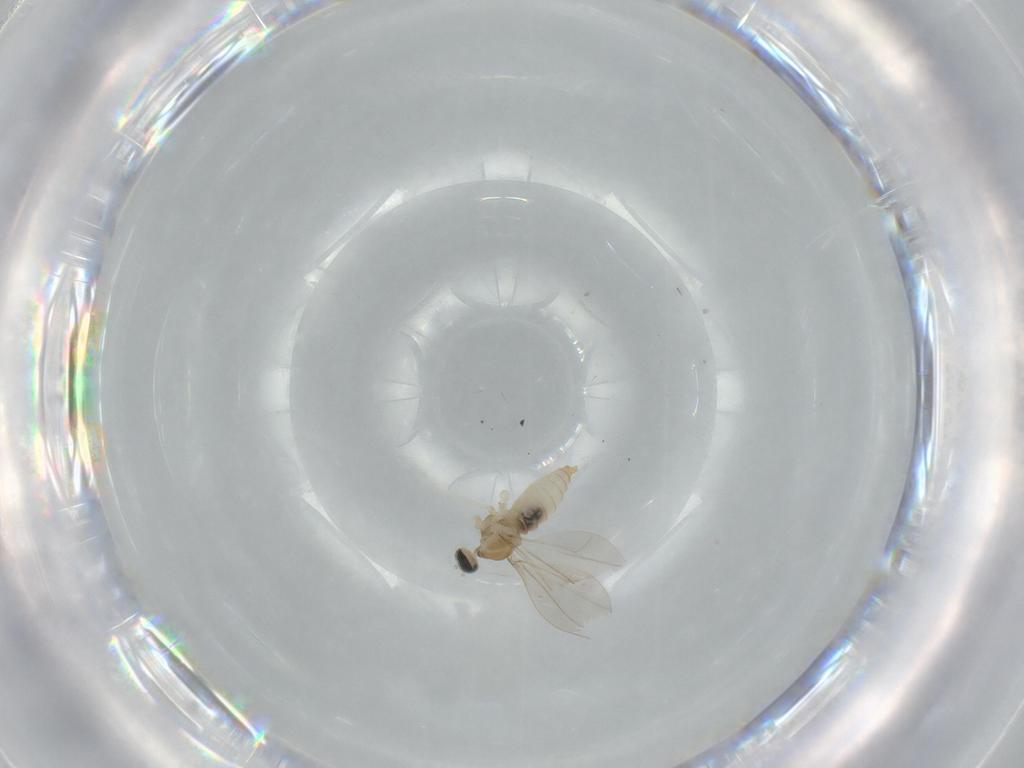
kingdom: Animalia
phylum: Arthropoda
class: Insecta
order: Diptera
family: Cecidomyiidae
